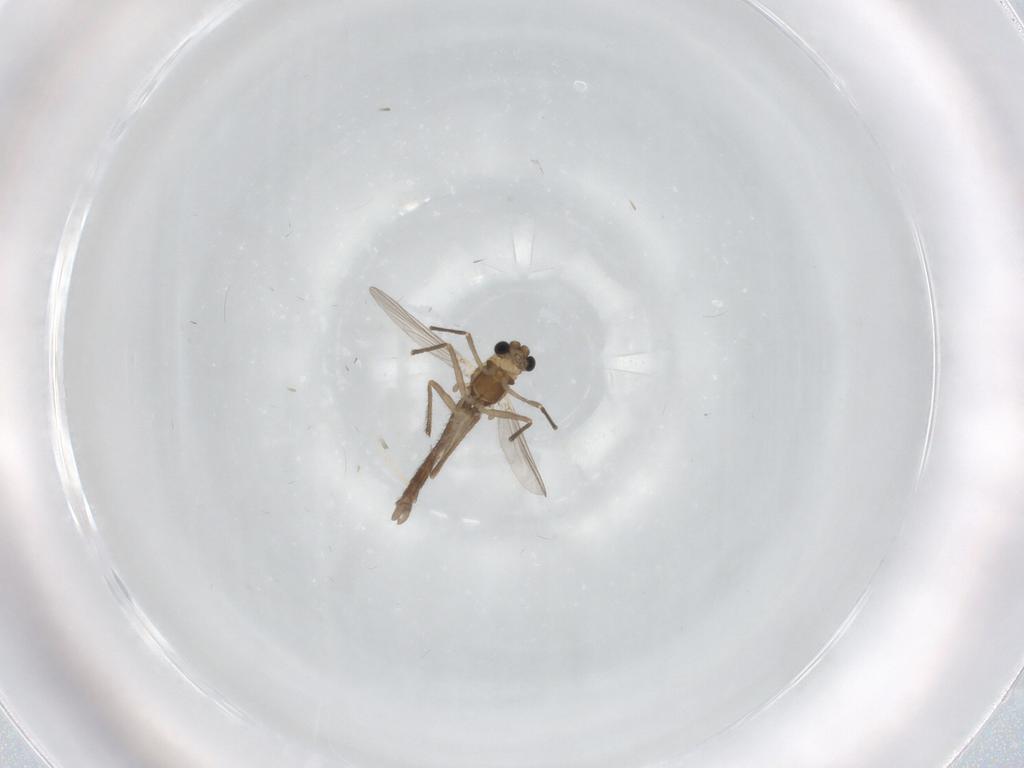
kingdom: Animalia
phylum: Arthropoda
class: Insecta
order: Diptera
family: Chironomidae
